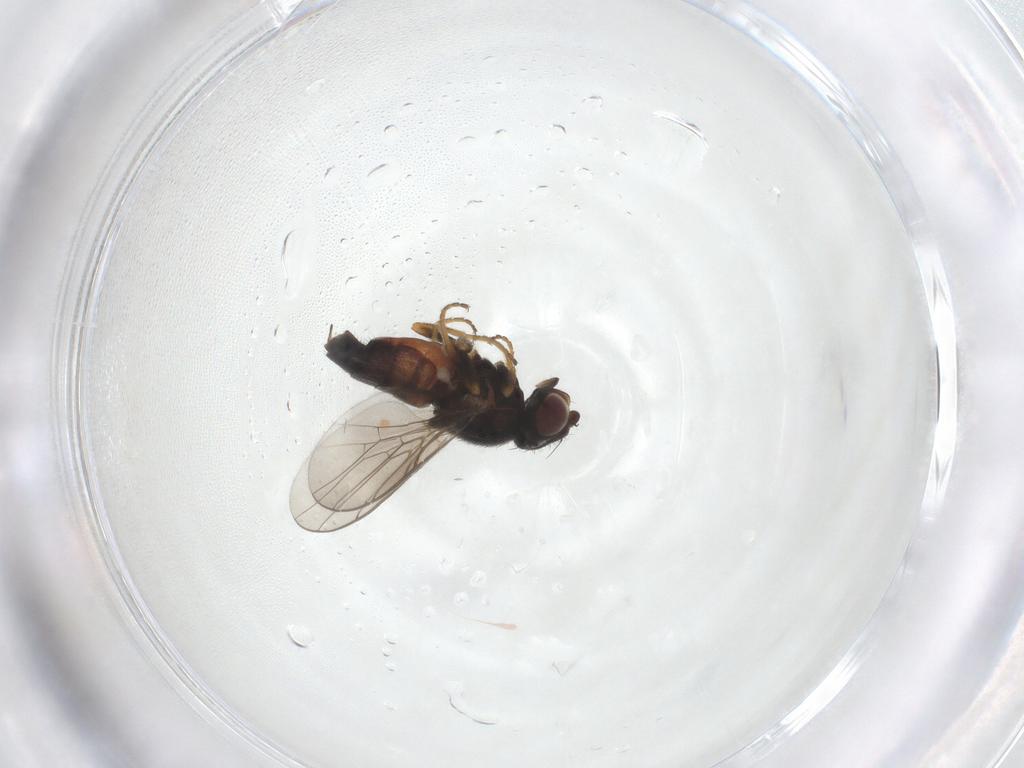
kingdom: Animalia
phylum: Arthropoda
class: Insecta
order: Diptera
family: Chloropidae
